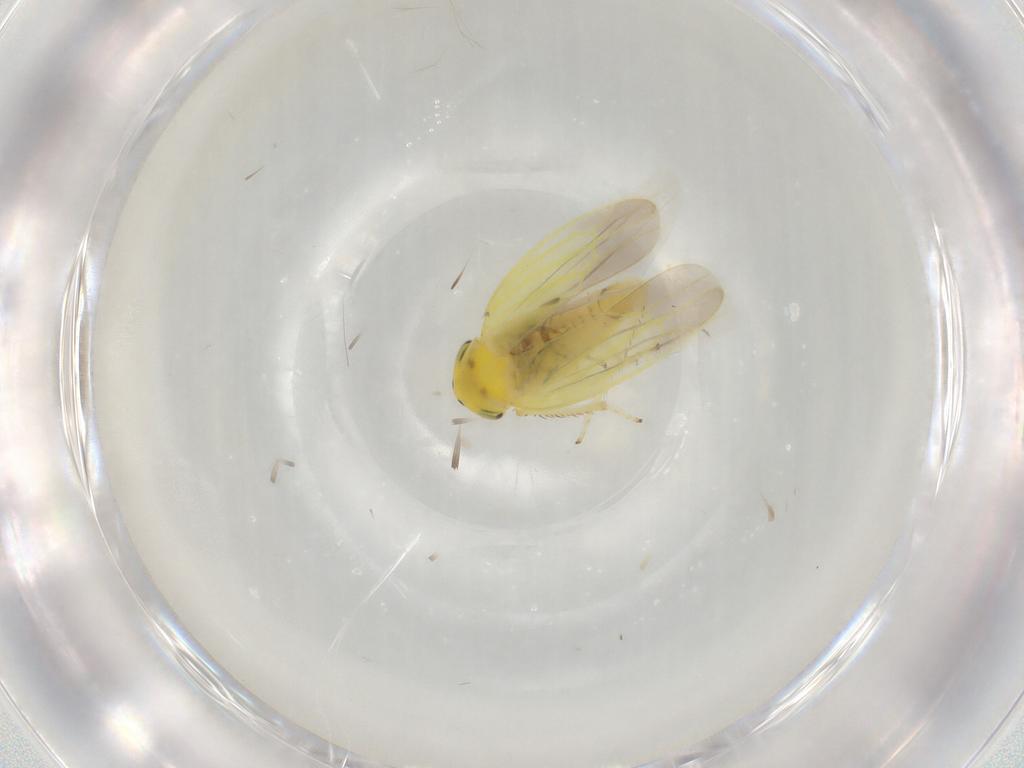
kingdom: Animalia
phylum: Arthropoda
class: Insecta
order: Hemiptera
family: Cicadellidae
